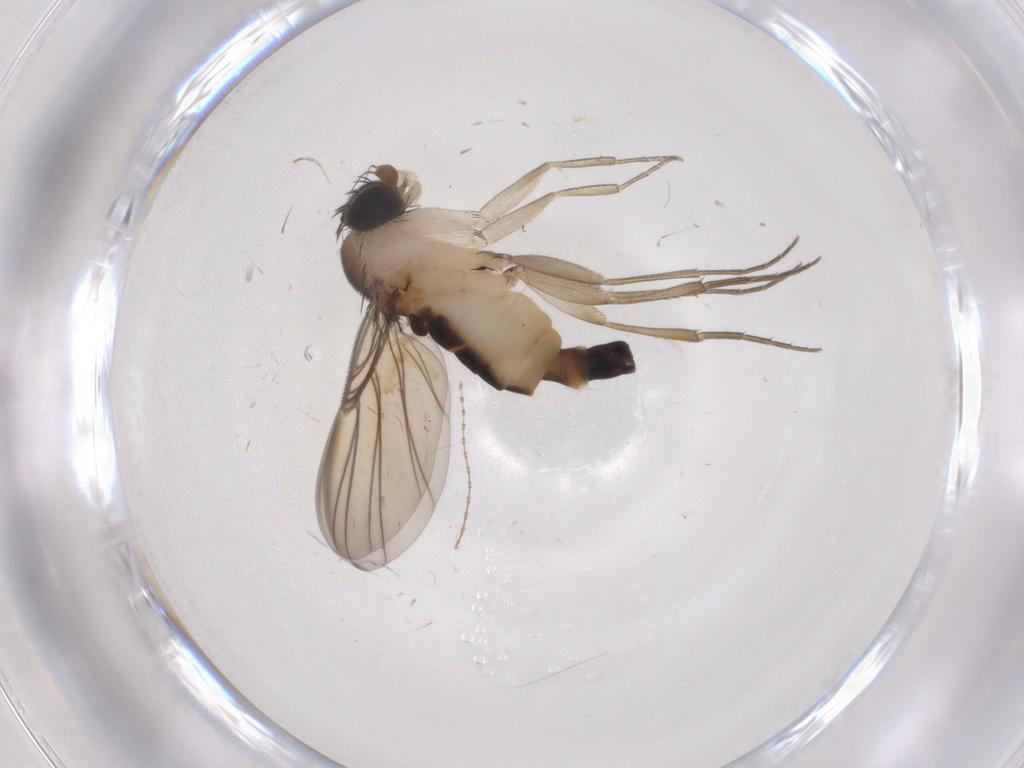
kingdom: Animalia
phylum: Arthropoda
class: Insecta
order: Diptera
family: Phoridae
